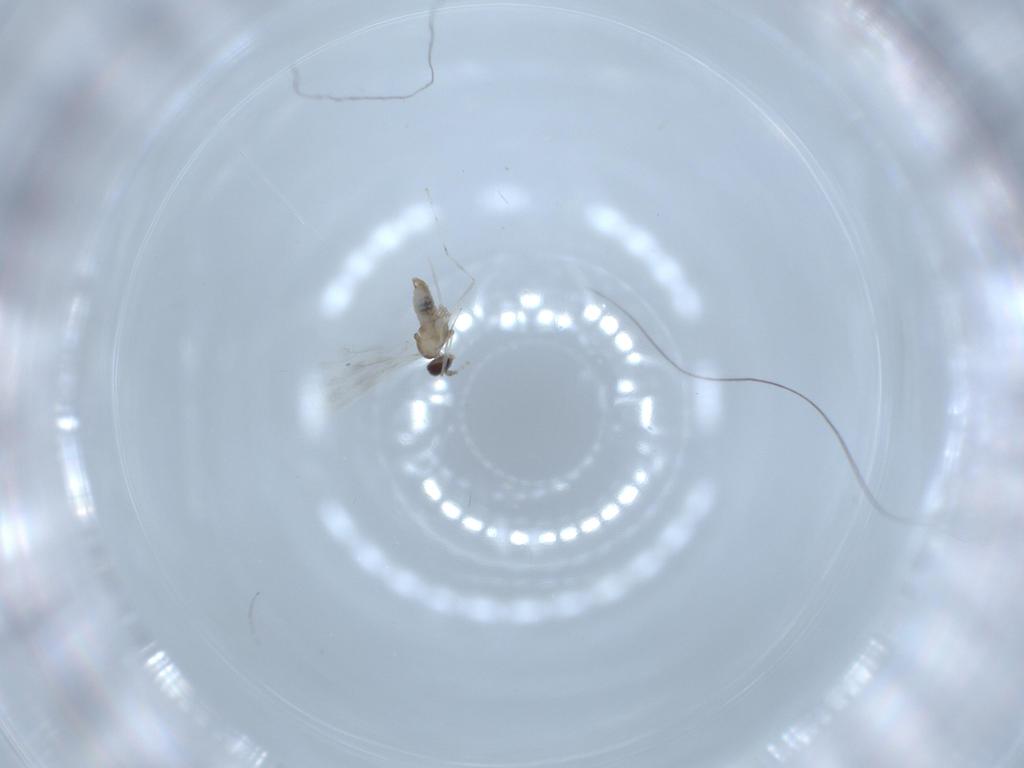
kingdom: Animalia
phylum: Arthropoda
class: Insecta
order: Diptera
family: Cecidomyiidae
